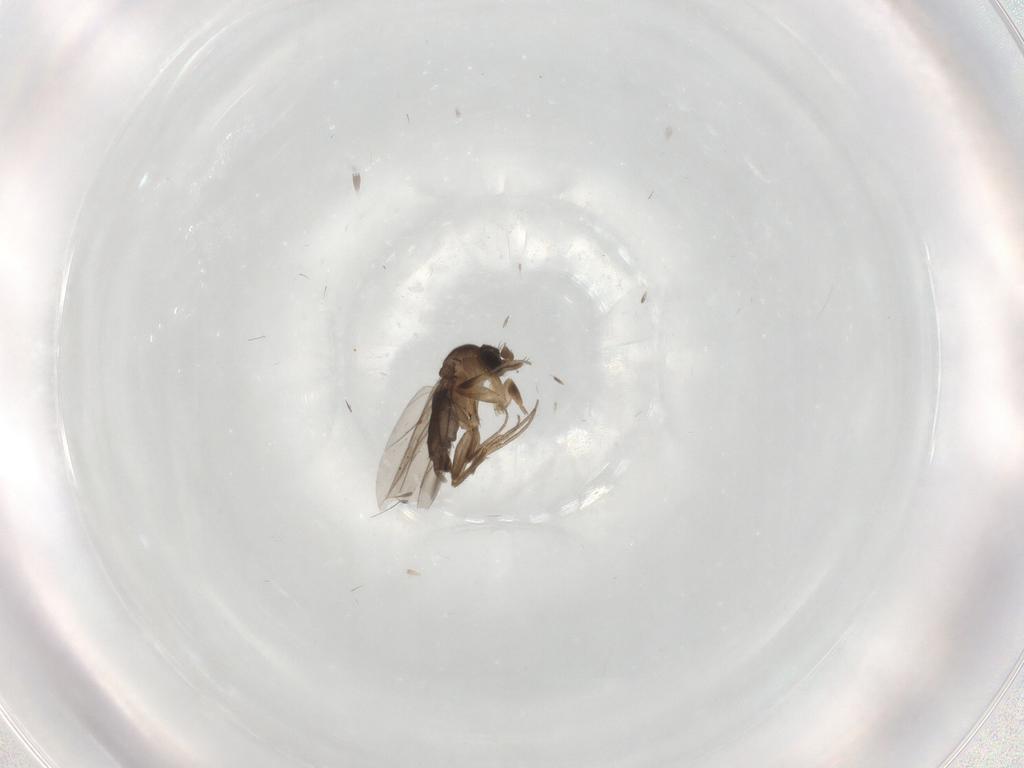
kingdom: Animalia
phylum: Arthropoda
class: Insecta
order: Diptera
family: Phoridae
